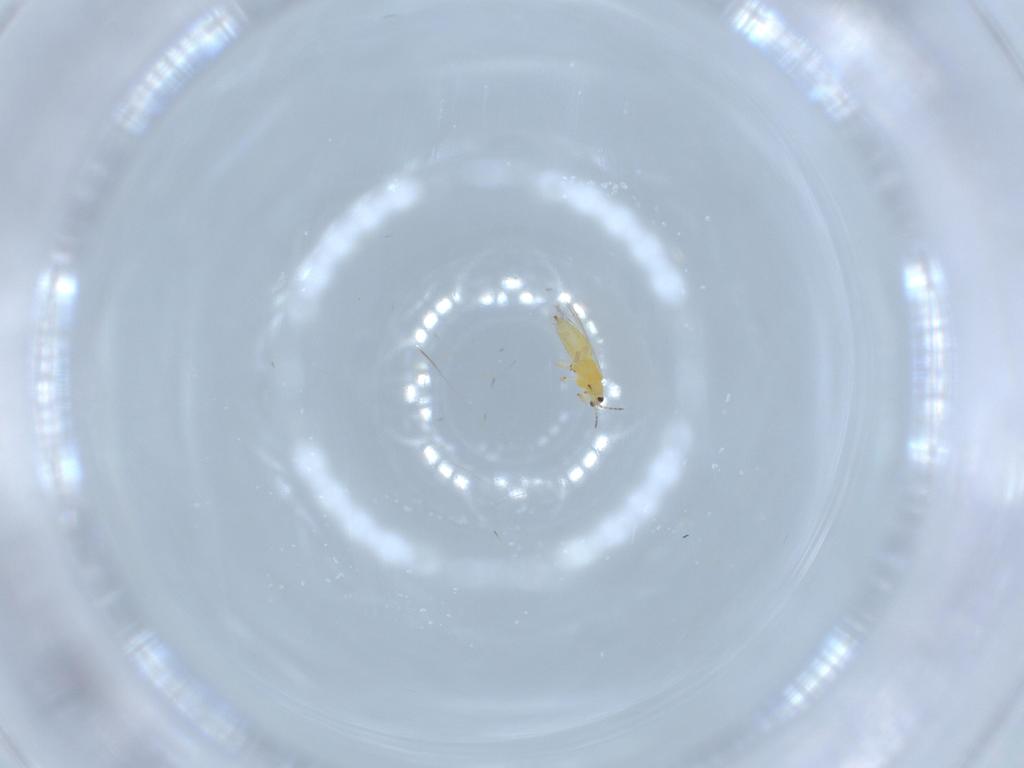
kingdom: Animalia
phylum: Arthropoda
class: Insecta
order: Thysanoptera
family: Thripidae
